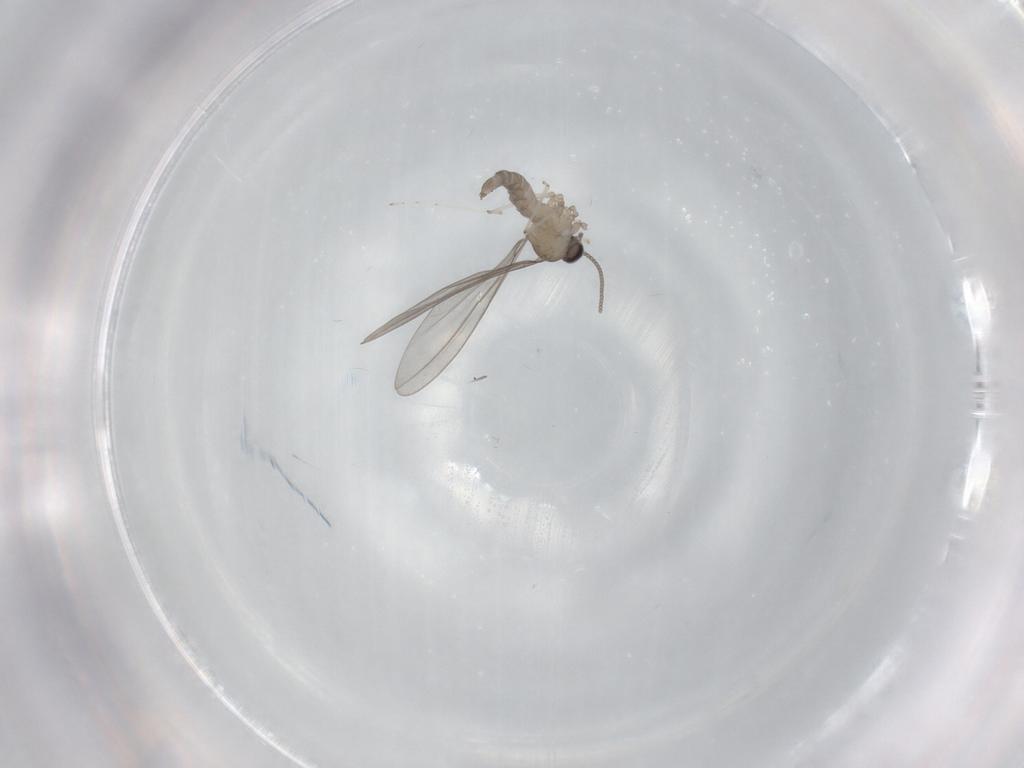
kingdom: Animalia
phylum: Arthropoda
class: Insecta
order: Diptera
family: Cecidomyiidae
